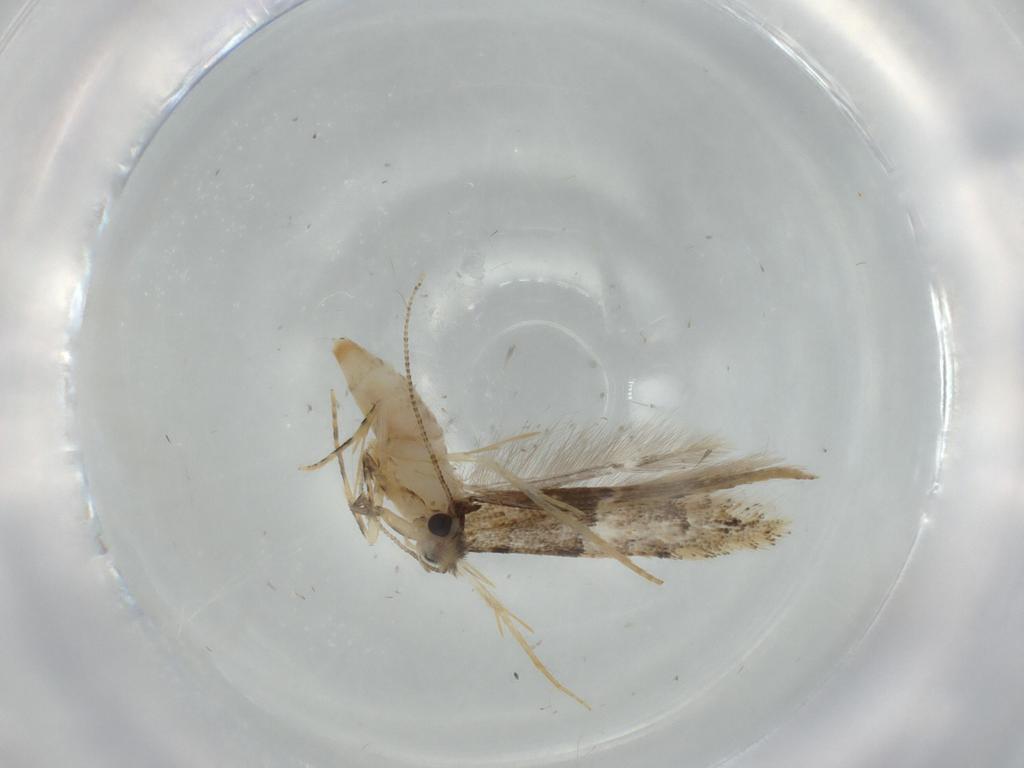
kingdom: Animalia
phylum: Arthropoda
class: Insecta
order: Lepidoptera
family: Tineidae
